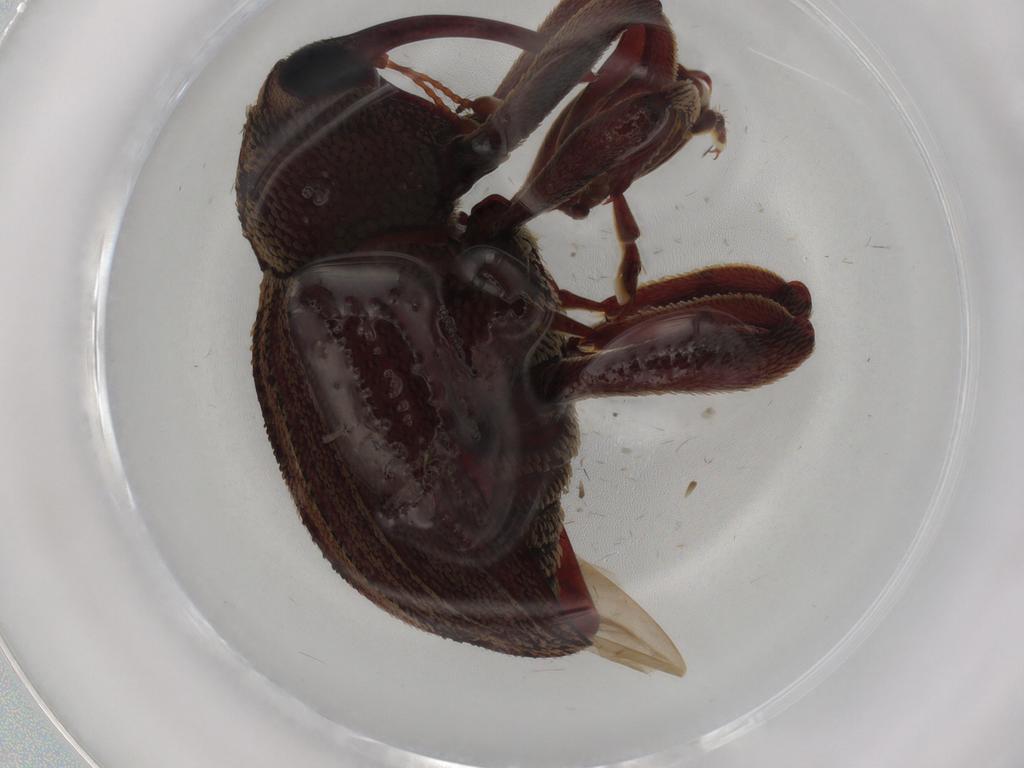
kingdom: Animalia
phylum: Arthropoda
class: Insecta
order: Coleoptera
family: Curculionidae
